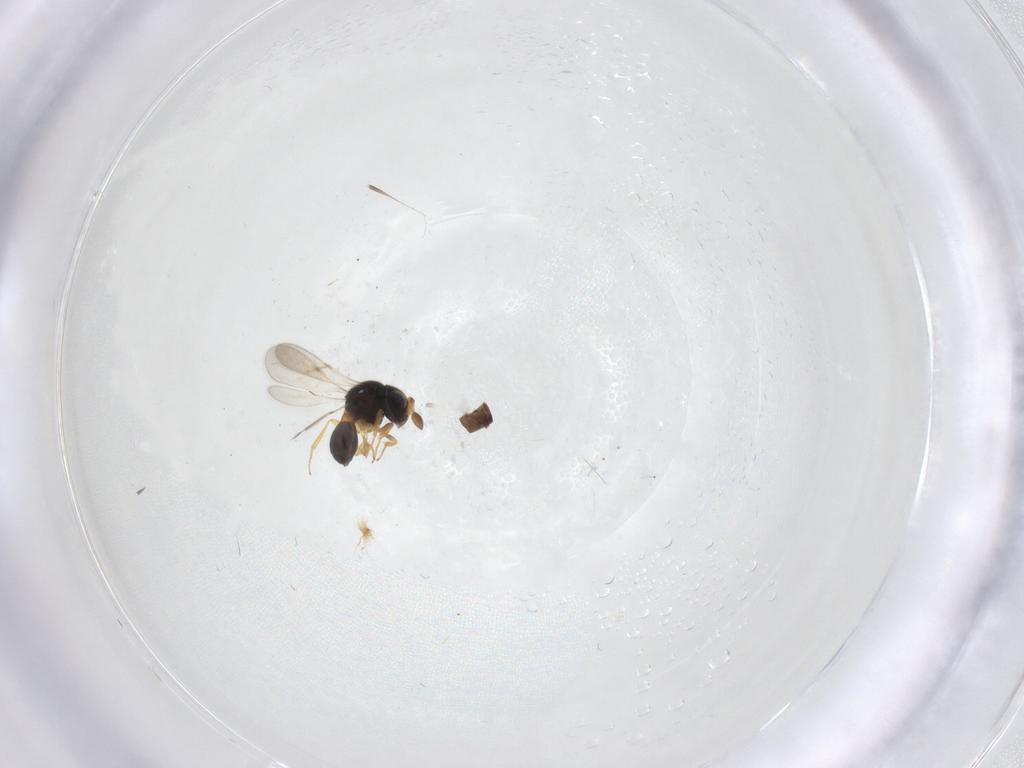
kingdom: Animalia
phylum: Arthropoda
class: Insecta
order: Hymenoptera
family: Scelionidae
